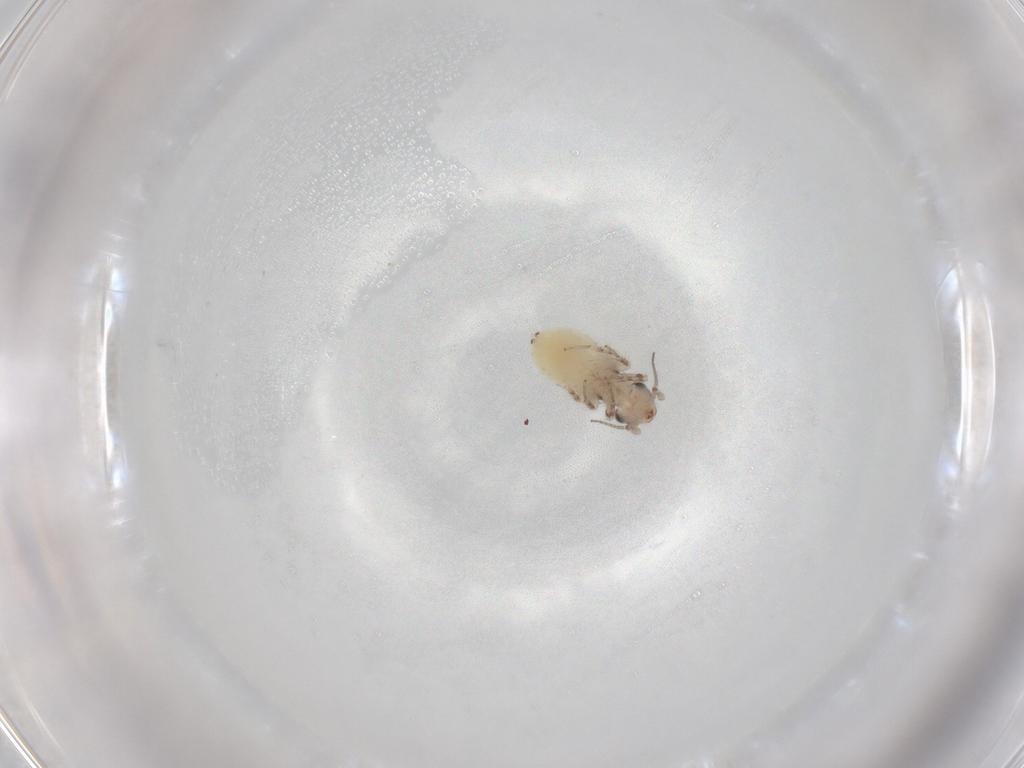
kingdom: Animalia
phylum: Arthropoda
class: Insecta
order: Psocodea
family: Lepidopsocidae
